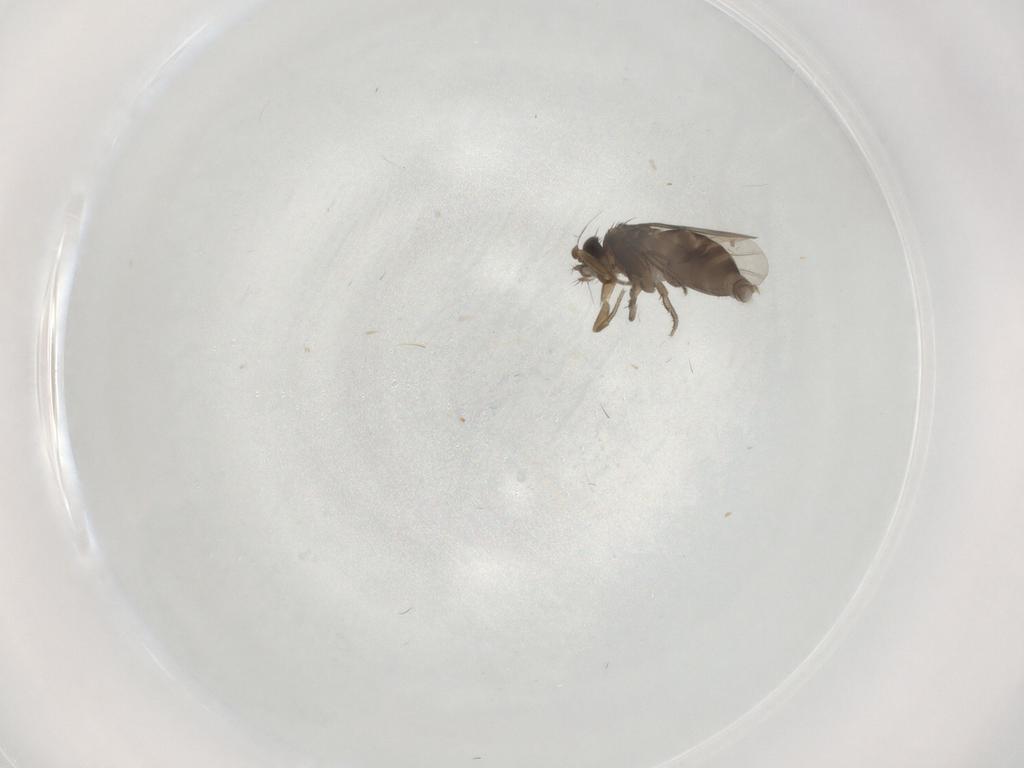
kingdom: Animalia
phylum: Arthropoda
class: Insecta
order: Diptera
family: Phoridae
